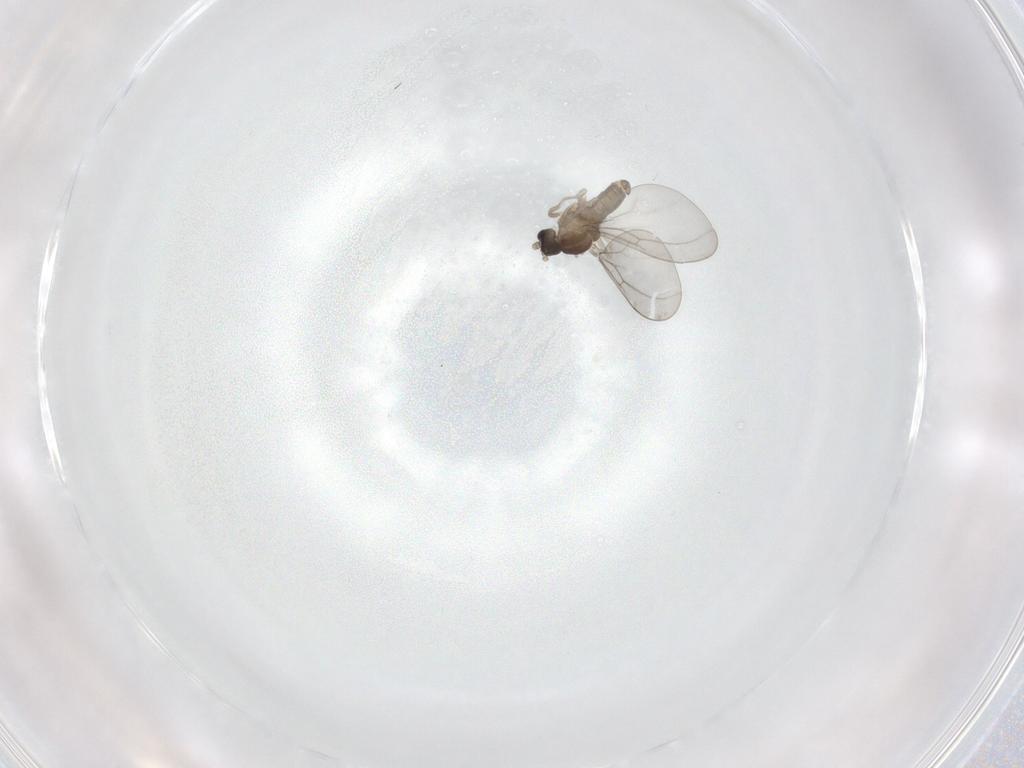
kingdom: Animalia
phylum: Arthropoda
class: Insecta
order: Diptera
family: Cecidomyiidae
